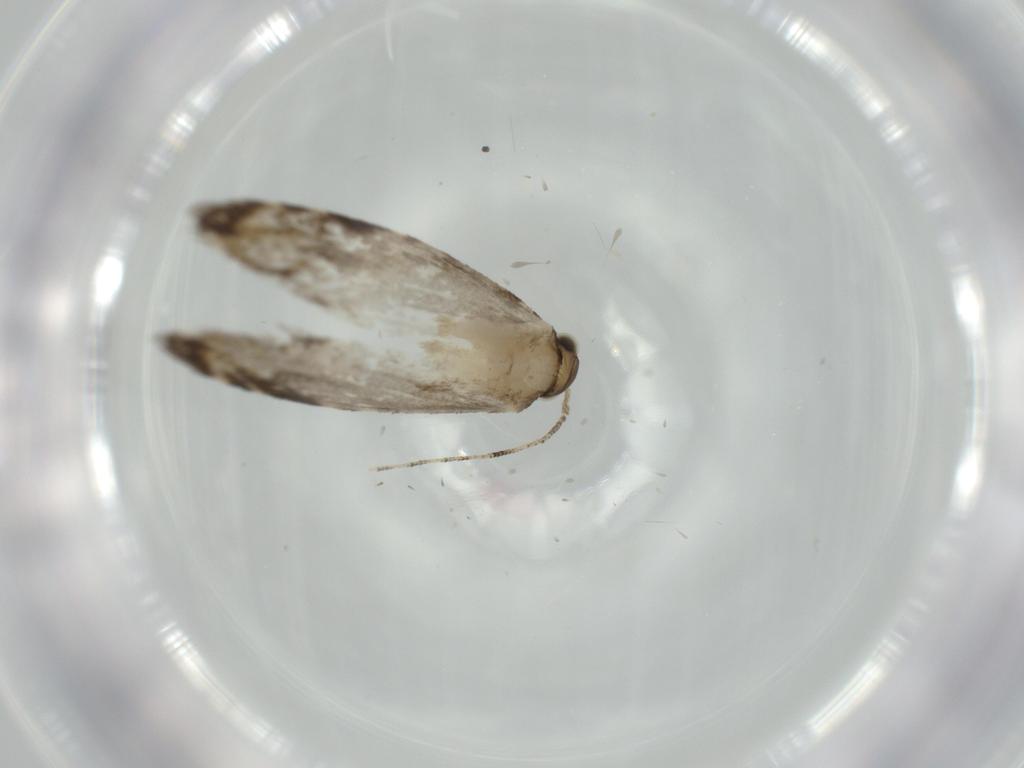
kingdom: Animalia
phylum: Arthropoda
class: Insecta
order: Lepidoptera
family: Tineidae
